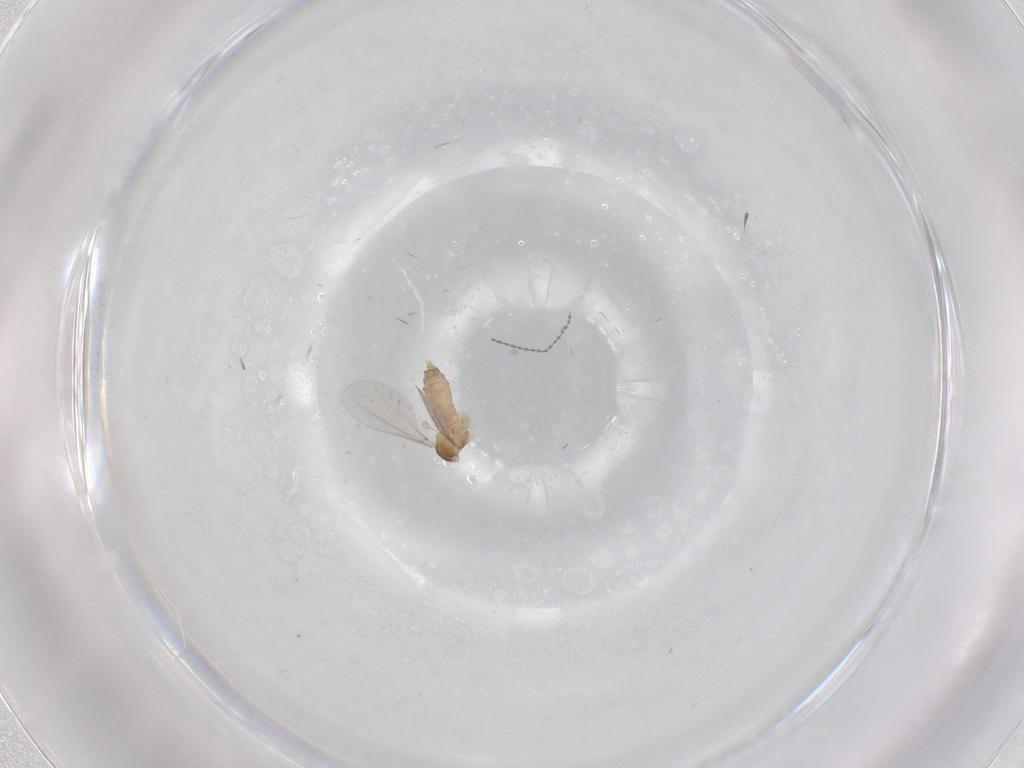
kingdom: Animalia
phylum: Arthropoda
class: Insecta
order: Diptera
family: Cecidomyiidae
